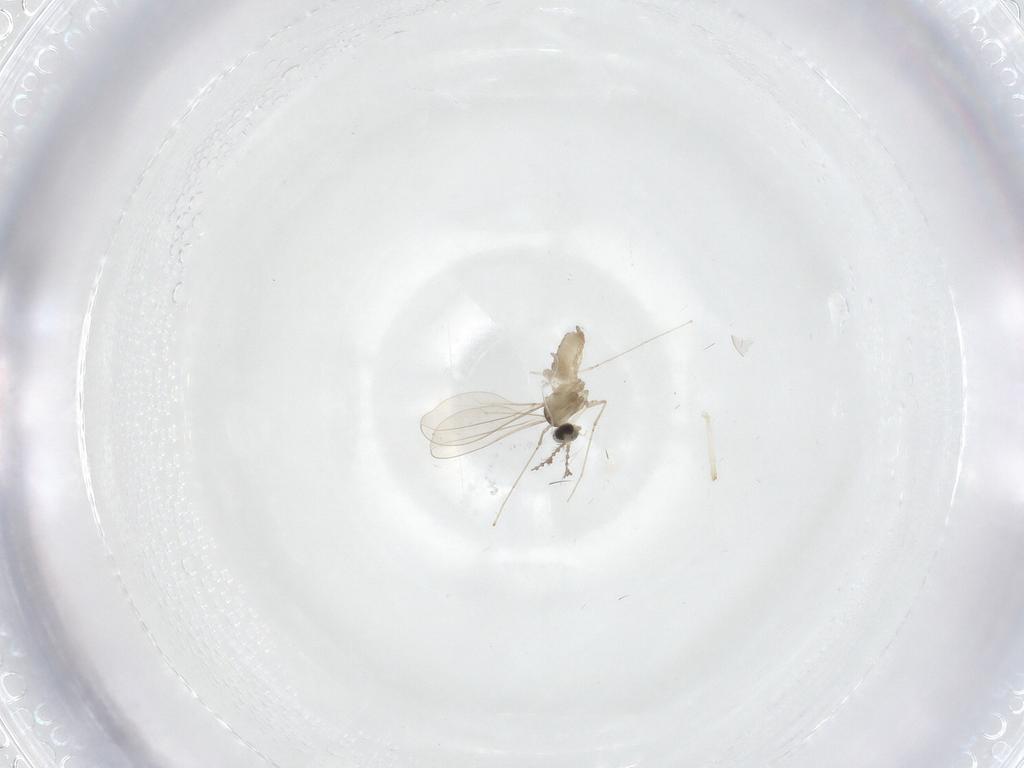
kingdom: Animalia
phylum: Arthropoda
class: Insecta
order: Diptera
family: Cecidomyiidae
